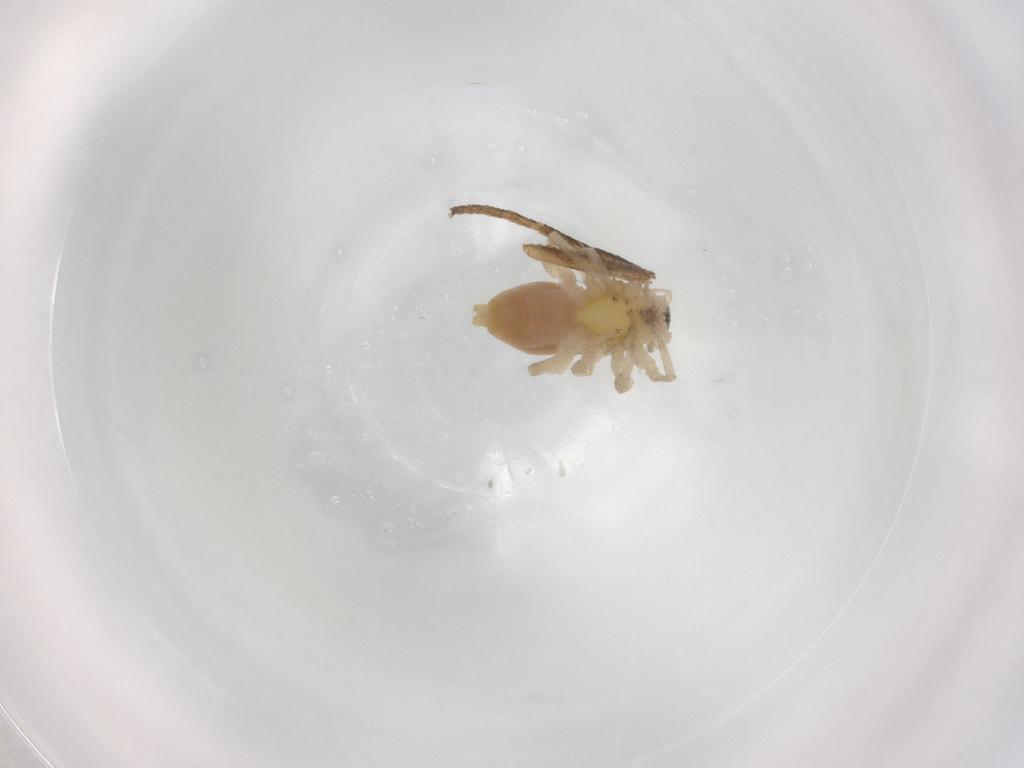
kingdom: Animalia
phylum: Arthropoda
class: Arachnida
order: Araneae
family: Anyphaenidae
